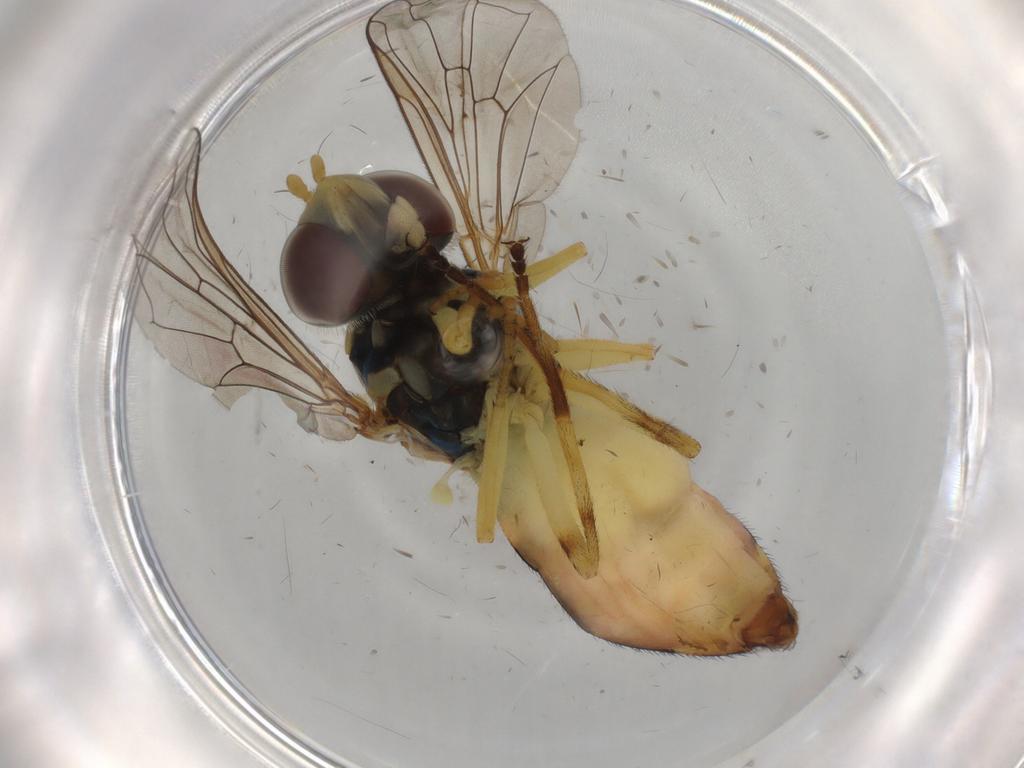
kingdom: Animalia
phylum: Arthropoda
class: Insecta
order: Diptera
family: Syrphidae
